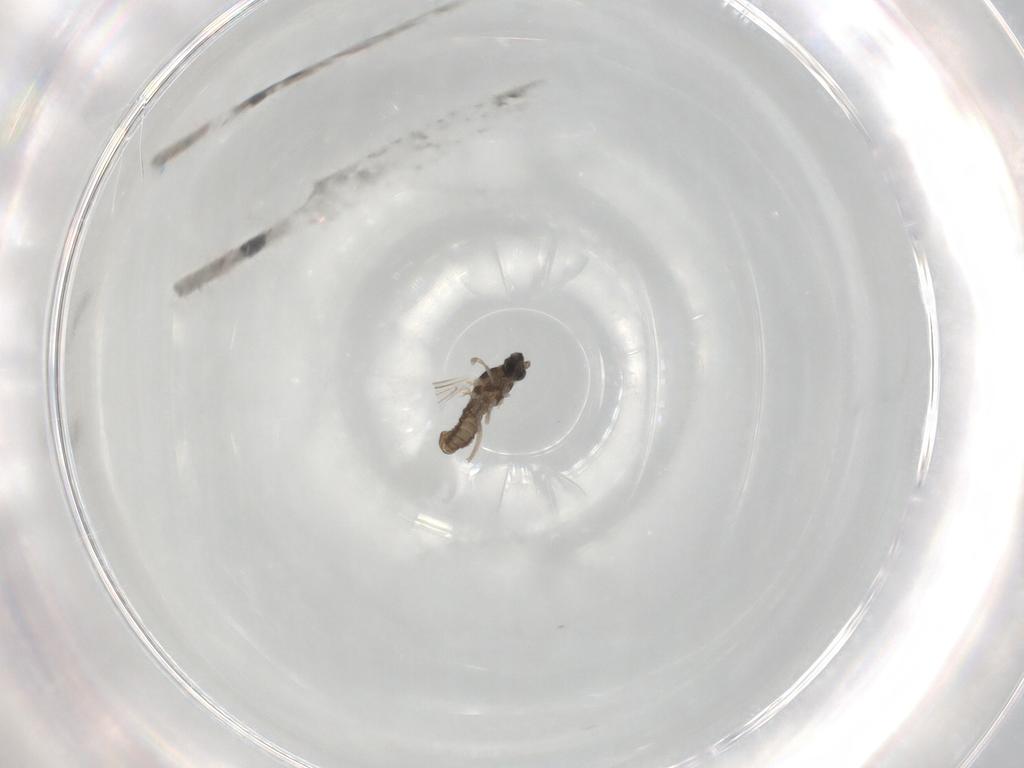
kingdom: Animalia
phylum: Arthropoda
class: Insecta
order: Diptera
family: Cecidomyiidae
